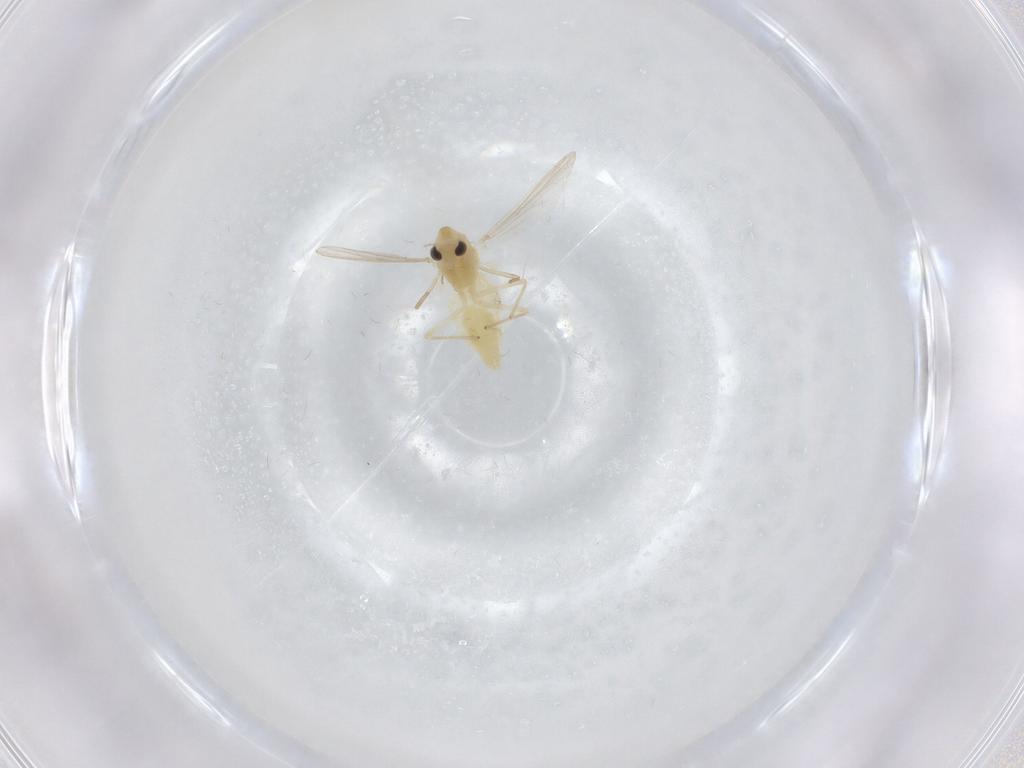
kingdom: Animalia
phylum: Arthropoda
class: Insecta
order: Diptera
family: Chironomidae
